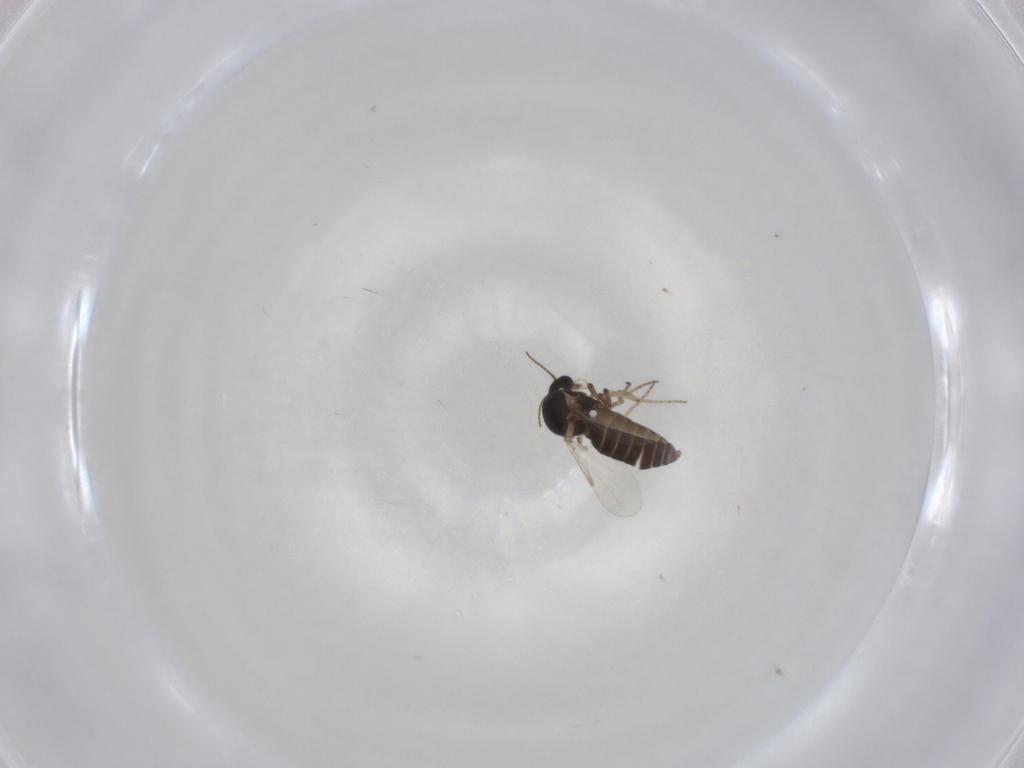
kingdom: Animalia
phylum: Arthropoda
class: Insecta
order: Diptera
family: Ceratopogonidae
